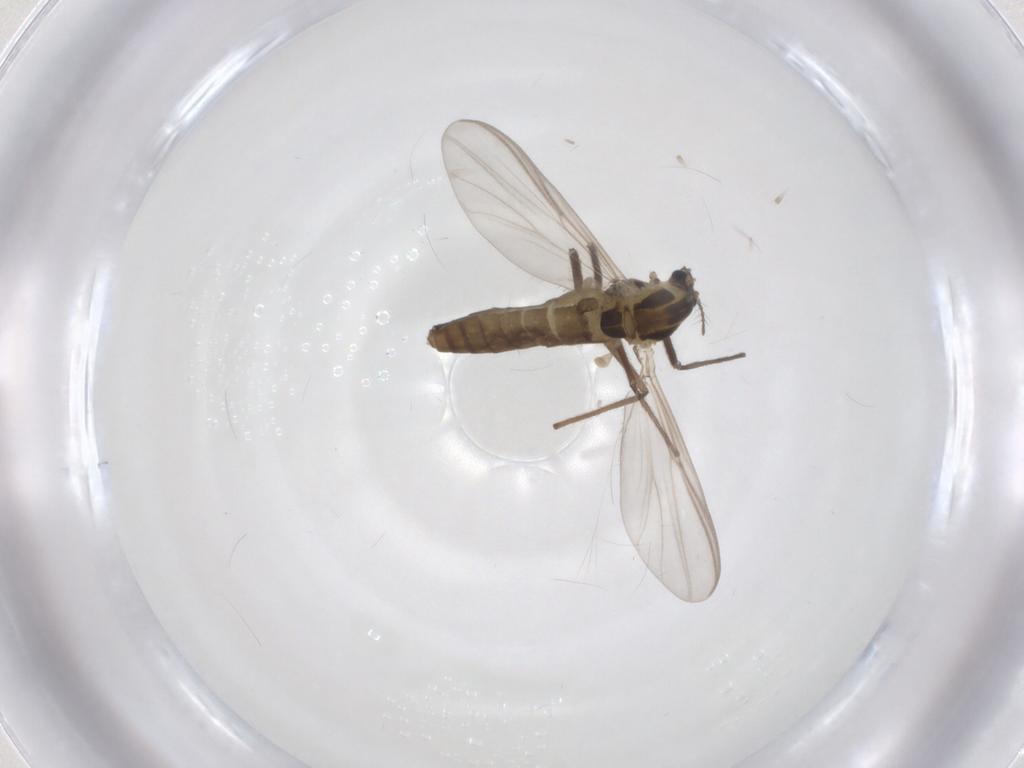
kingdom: Animalia
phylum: Arthropoda
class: Insecta
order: Diptera
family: Chironomidae
